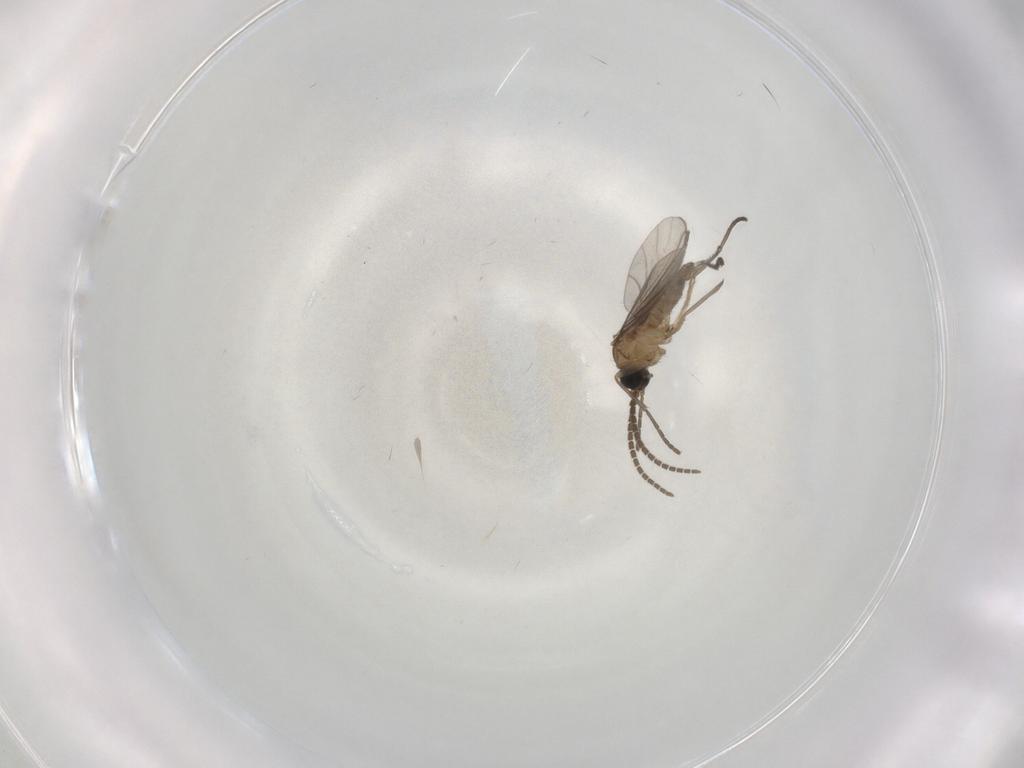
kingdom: Animalia
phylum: Arthropoda
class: Insecta
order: Diptera
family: Sciaridae
